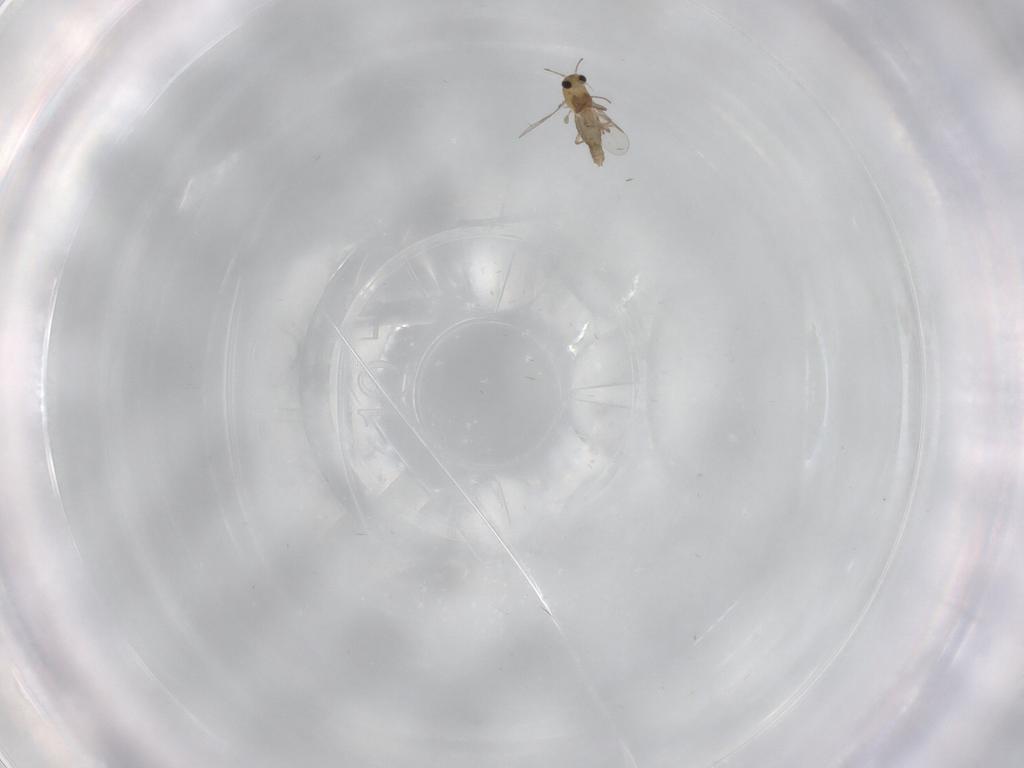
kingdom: Animalia
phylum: Arthropoda
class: Insecta
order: Diptera
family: Chironomidae
